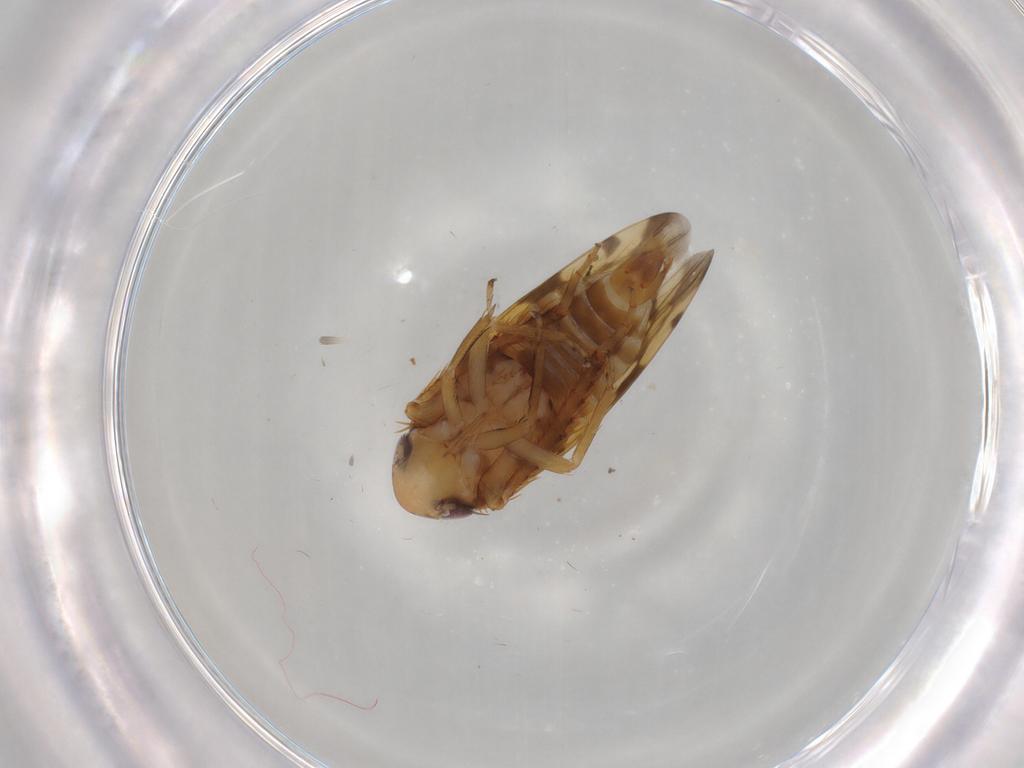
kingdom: Animalia
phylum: Arthropoda
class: Insecta
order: Hemiptera
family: Cicadellidae
